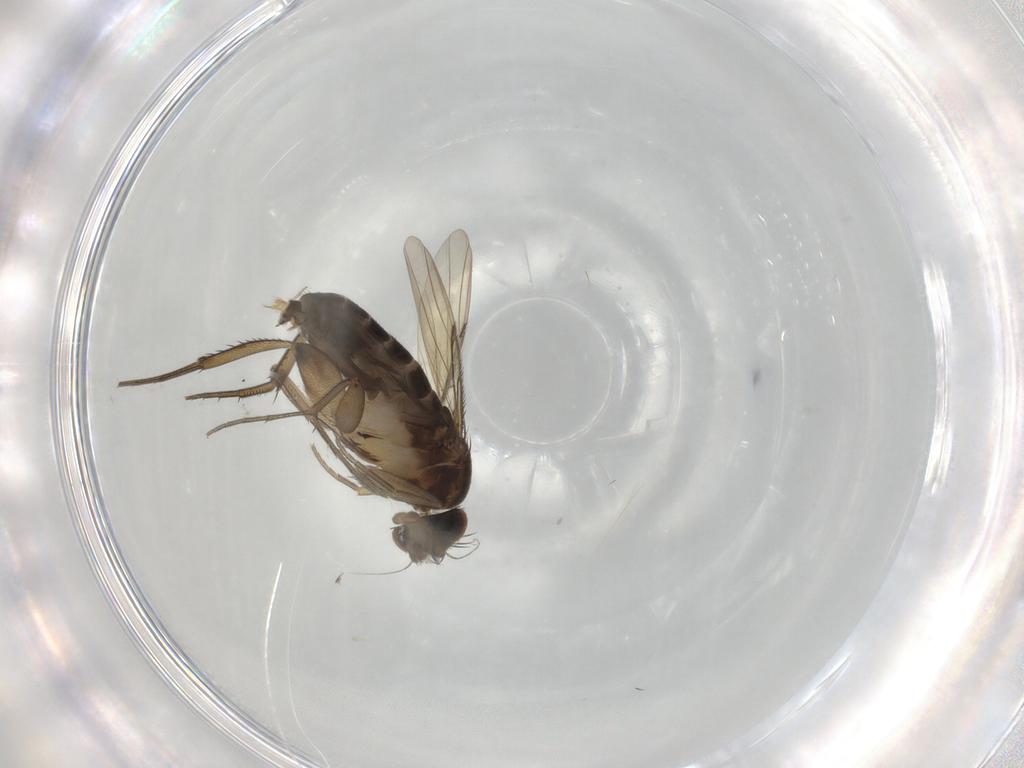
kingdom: Animalia
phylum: Arthropoda
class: Insecta
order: Diptera
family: Phoridae
